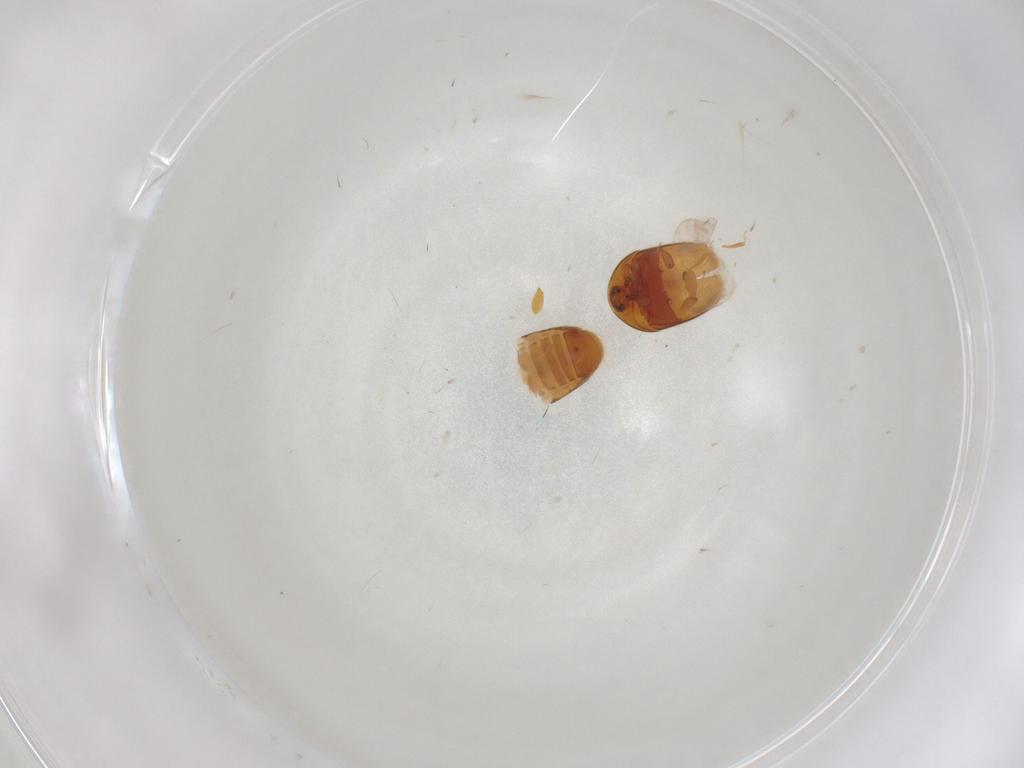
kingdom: Animalia
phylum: Arthropoda
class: Insecta
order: Coleoptera
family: Corylophidae
